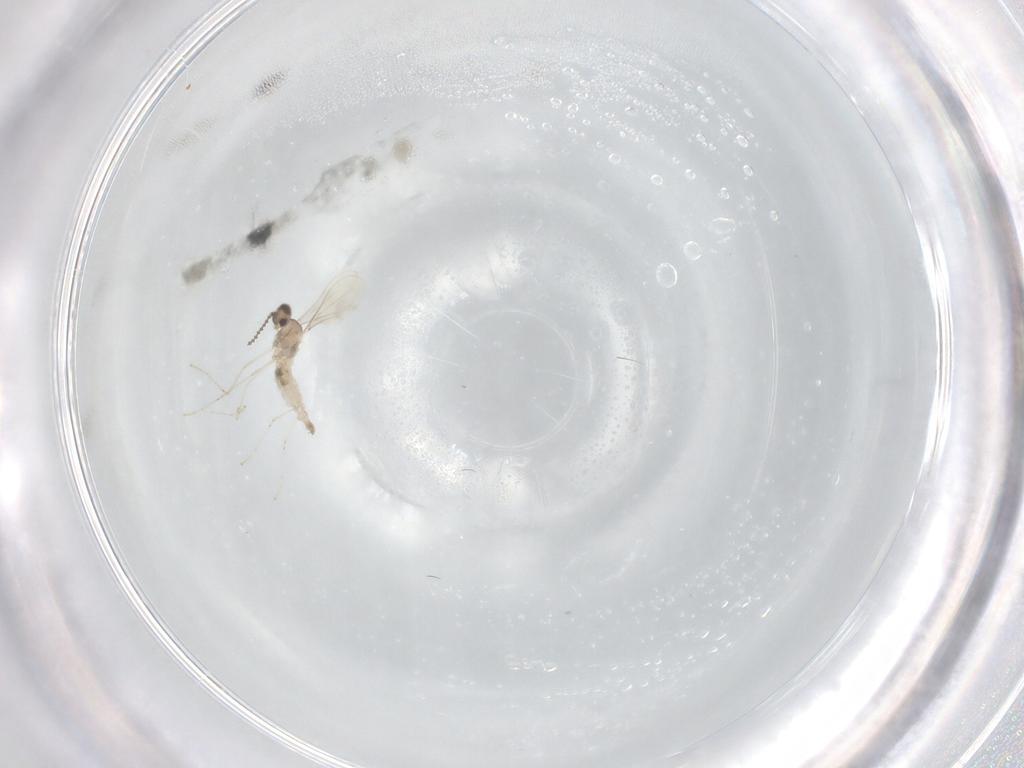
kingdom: Animalia
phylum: Arthropoda
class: Insecta
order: Diptera
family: Cecidomyiidae
